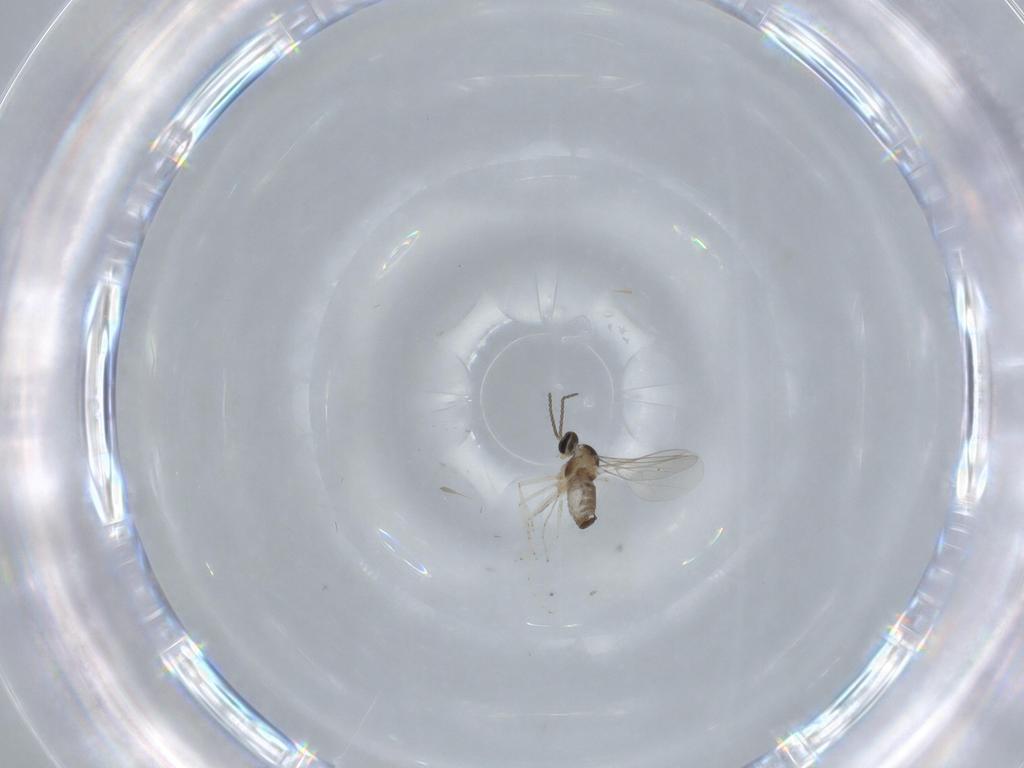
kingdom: Animalia
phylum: Arthropoda
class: Insecta
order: Diptera
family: Cecidomyiidae
